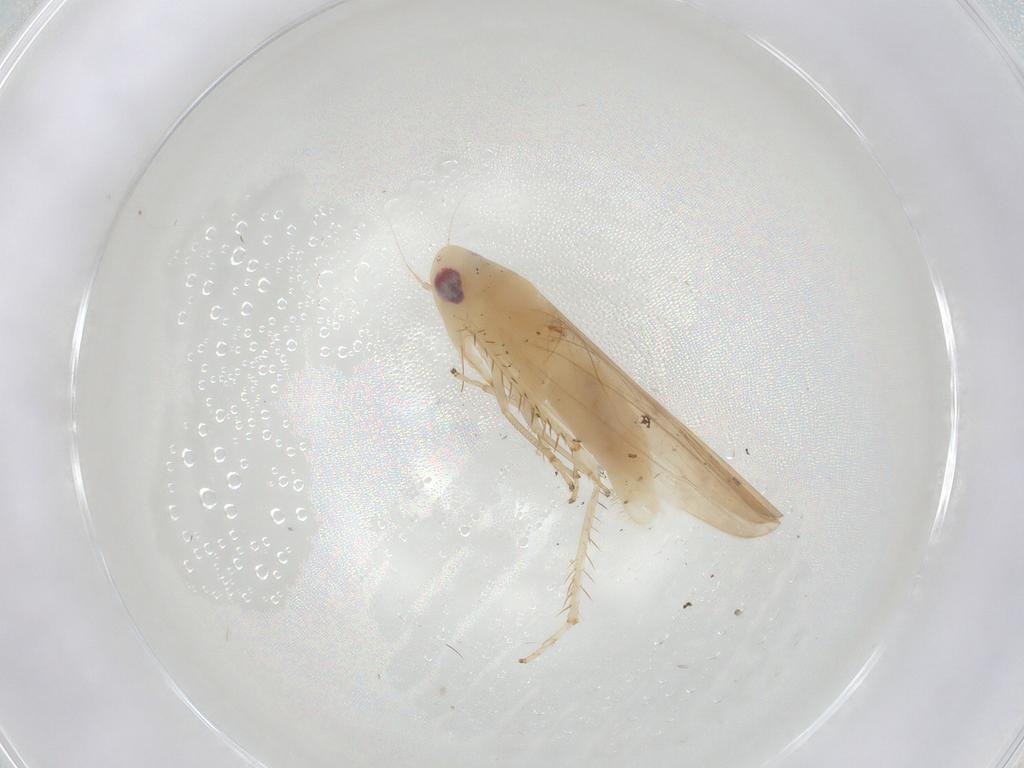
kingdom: Animalia
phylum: Arthropoda
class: Insecta
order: Hemiptera
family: Cicadellidae
